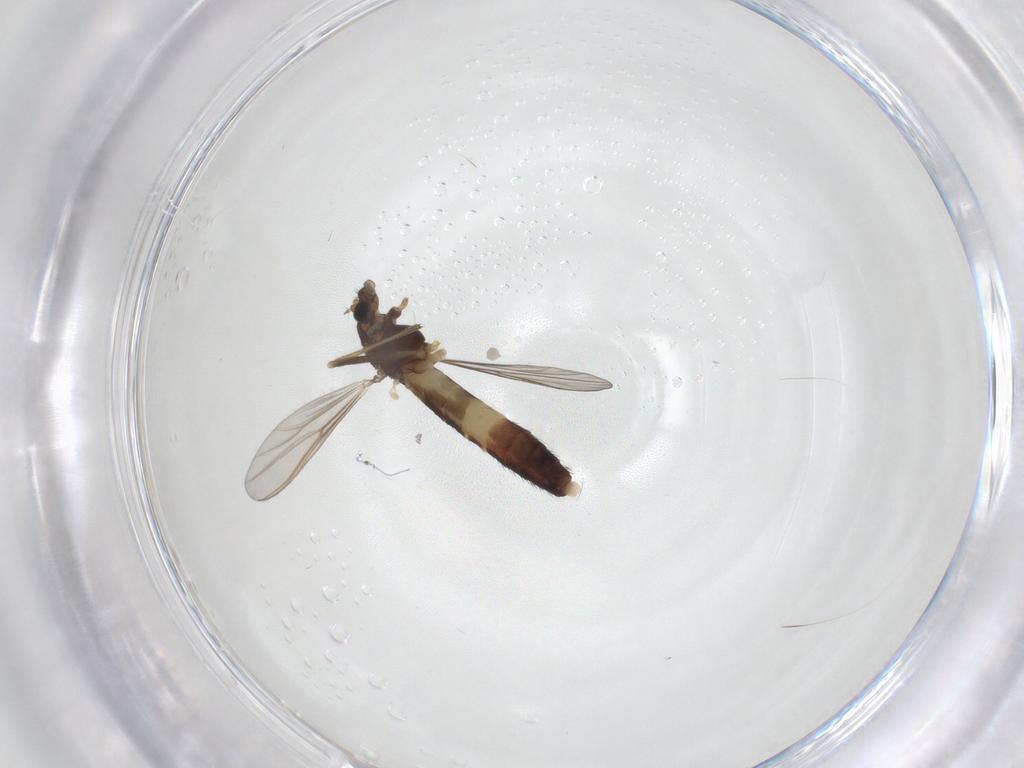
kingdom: Animalia
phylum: Arthropoda
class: Insecta
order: Diptera
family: Chironomidae
